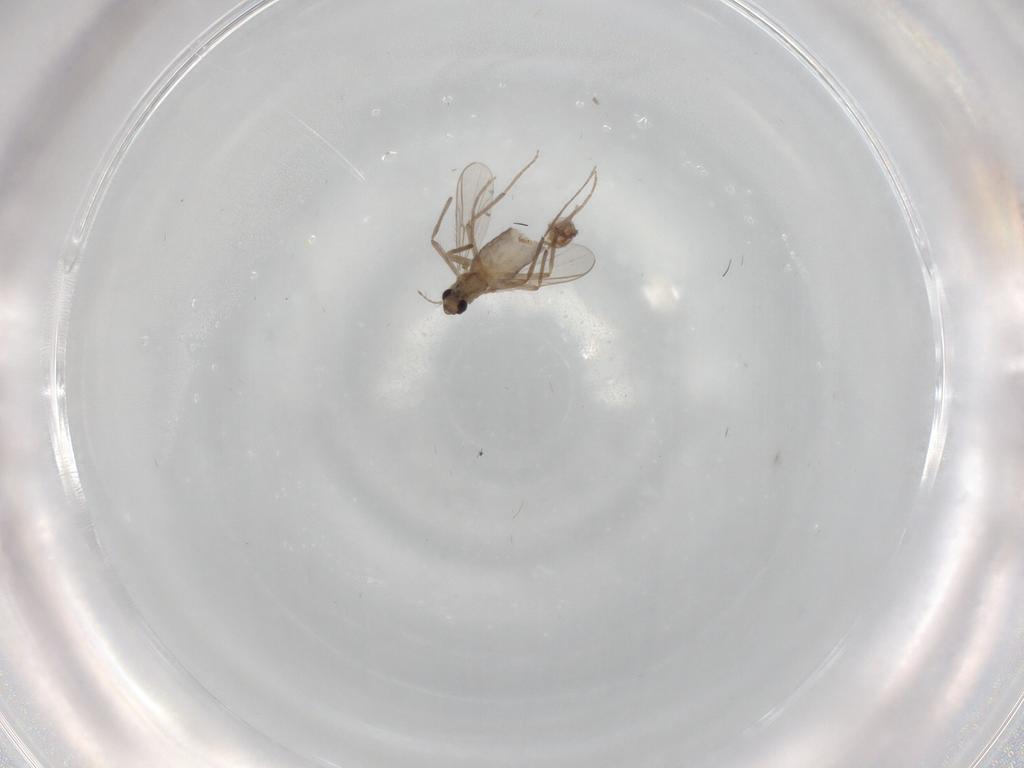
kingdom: Animalia
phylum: Arthropoda
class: Insecta
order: Diptera
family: Chironomidae
